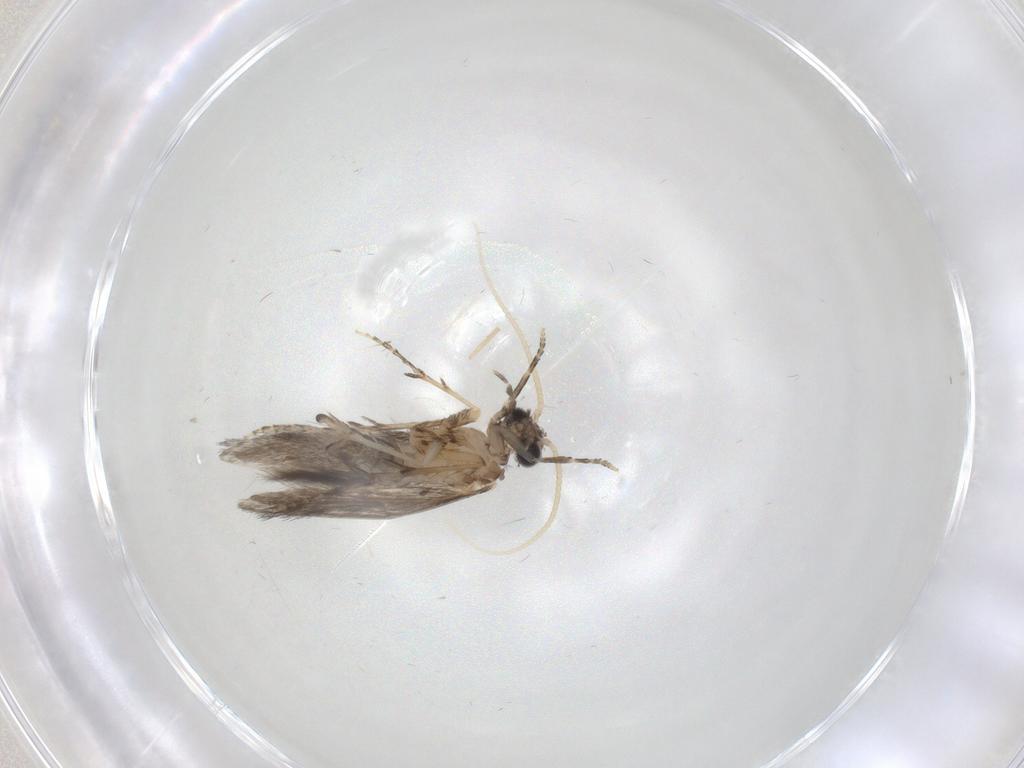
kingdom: Animalia
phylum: Arthropoda
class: Insecta
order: Trichoptera
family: Hydroptilidae
